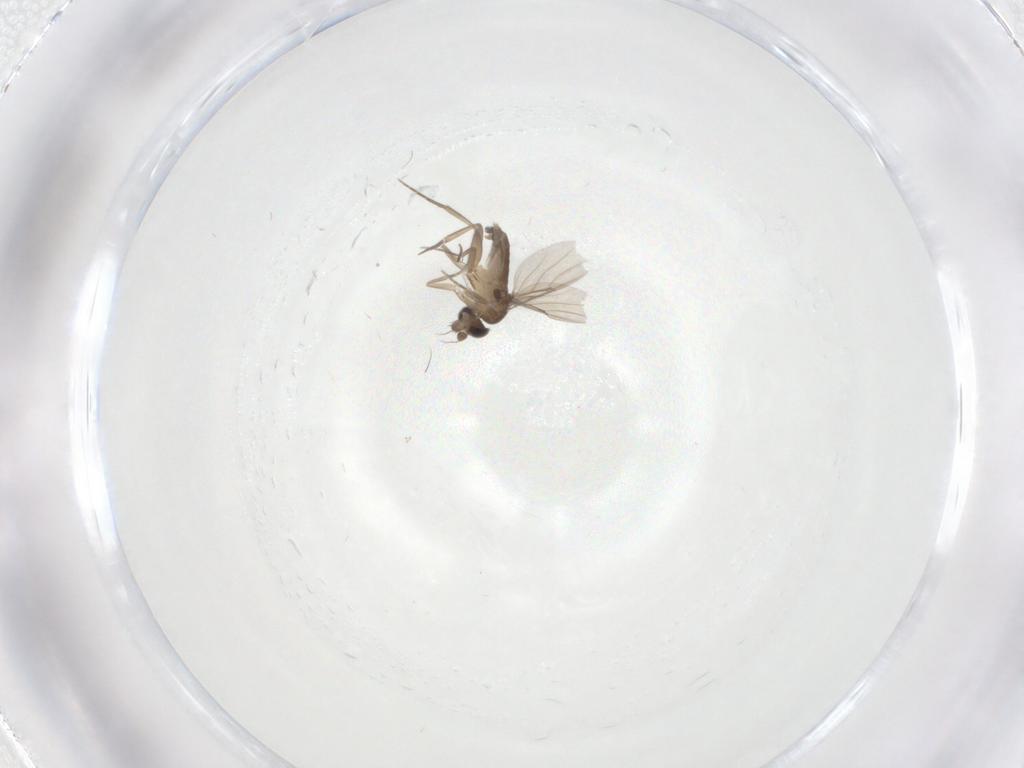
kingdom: Animalia
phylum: Arthropoda
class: Insecta
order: Diptera
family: Phoridae
